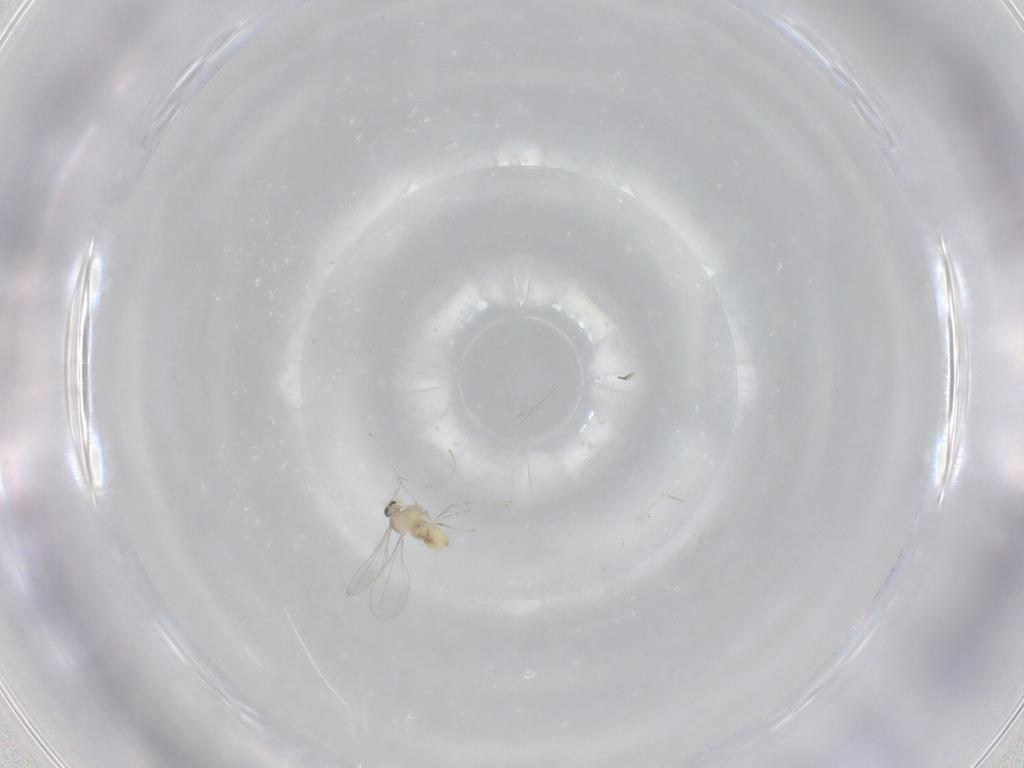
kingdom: Animalia
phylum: Arthropoda
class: Insecta
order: Diptera
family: Cecidomyiidae
